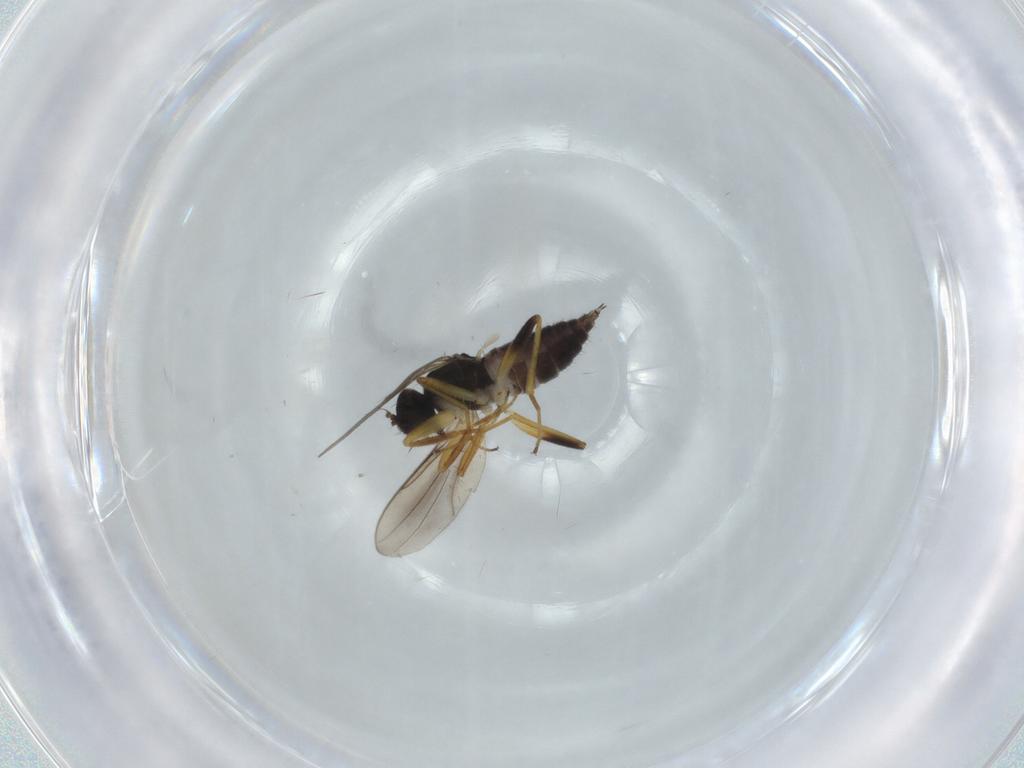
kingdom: Animalia
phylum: Arthropoda
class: Insecta
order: Diptera
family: Hybotidae
